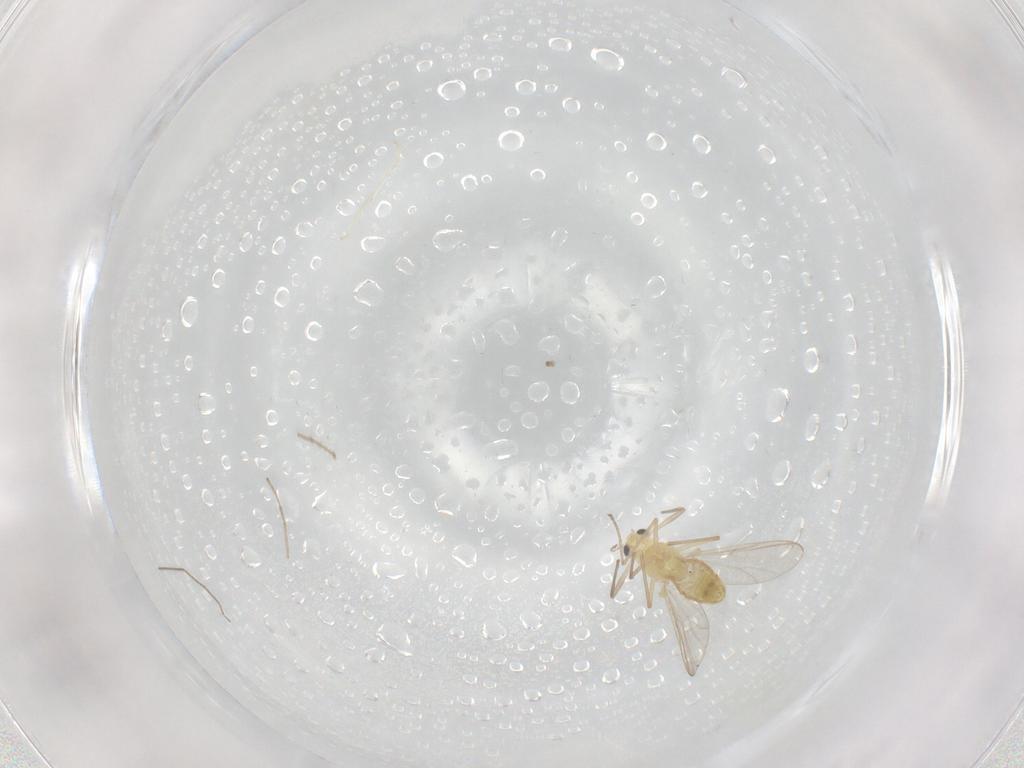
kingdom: Animalia
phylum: Arthropoda
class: Insecta
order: Diptera
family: Chironomidae
